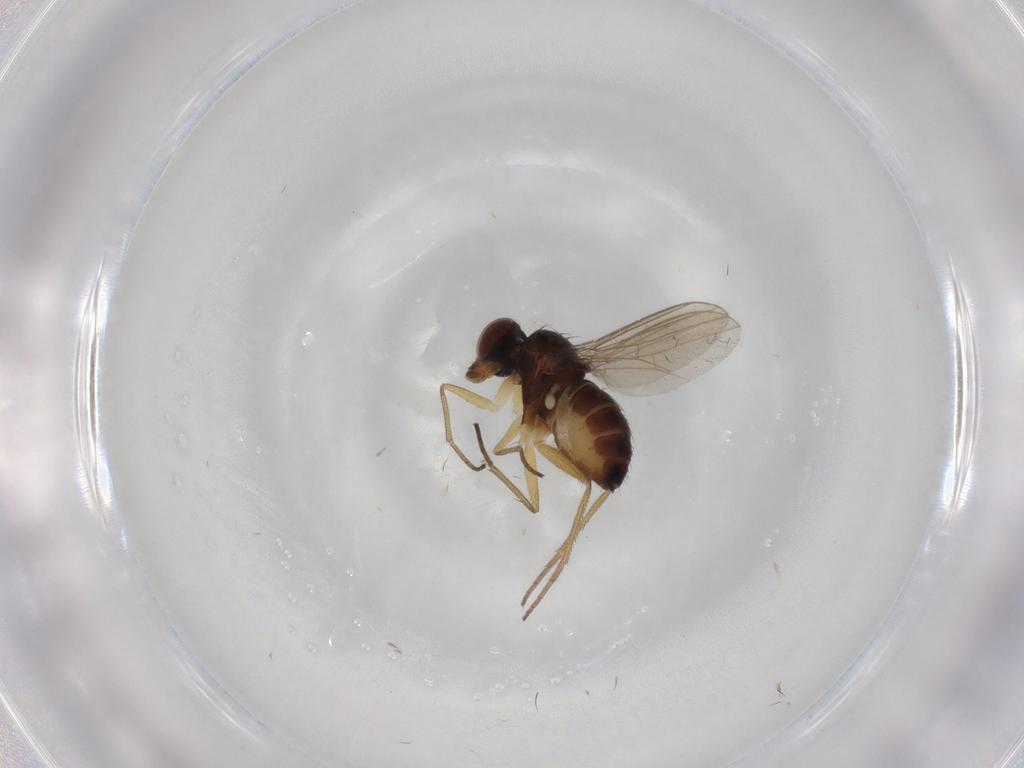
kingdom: Animalia
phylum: Arthropoda
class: Insecta
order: Diptera
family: Dolichopodidae
